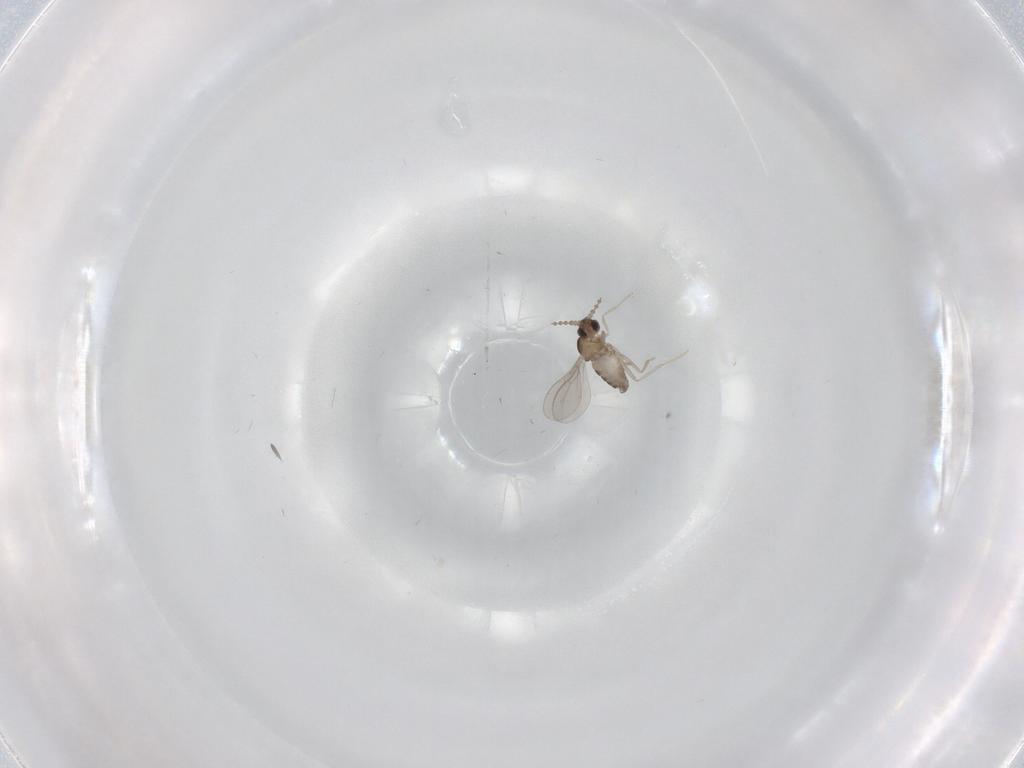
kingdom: Animalia
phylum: Arthropoda
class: Insecta
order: Diptera
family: Cecidomyiidae
